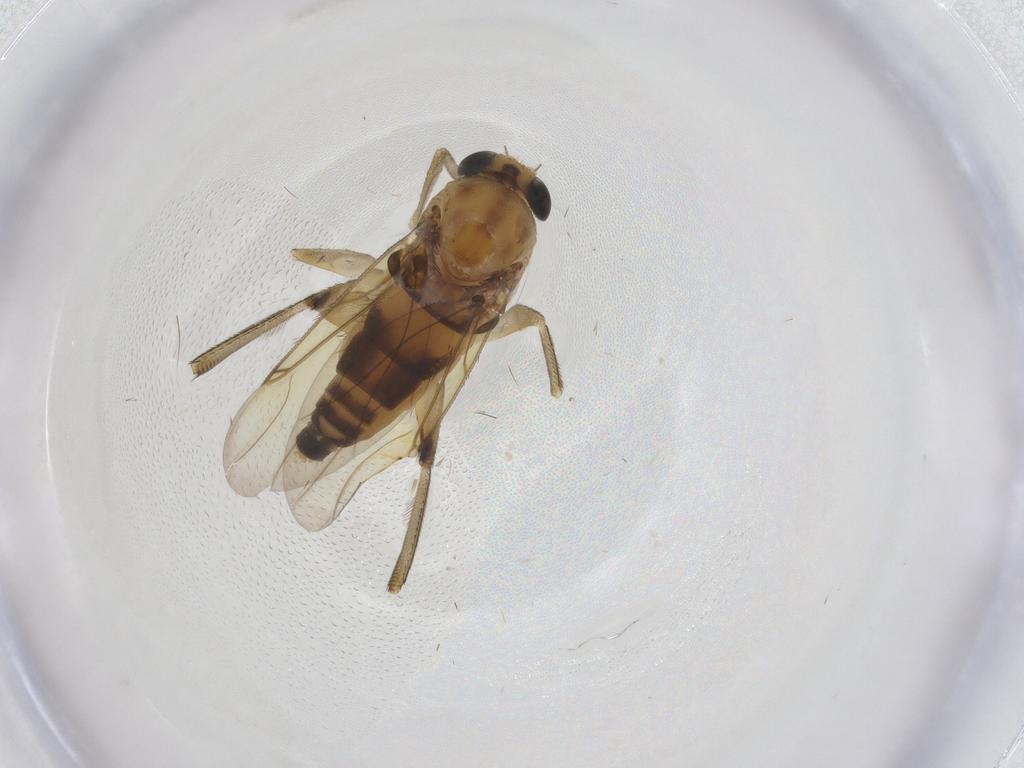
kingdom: Animalia
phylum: Arthropoda
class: Insecta
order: Diptera
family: Phoridae
